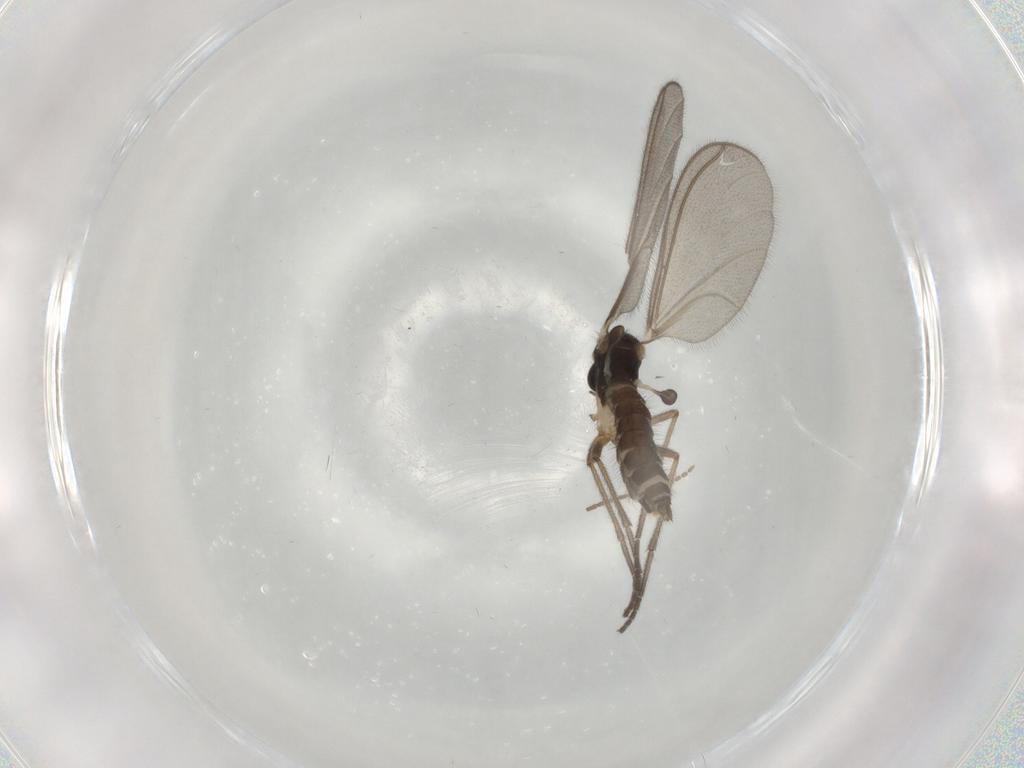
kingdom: Animalia
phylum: Arthropoda
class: Insecta
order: Diptera
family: Mycetophilidae
